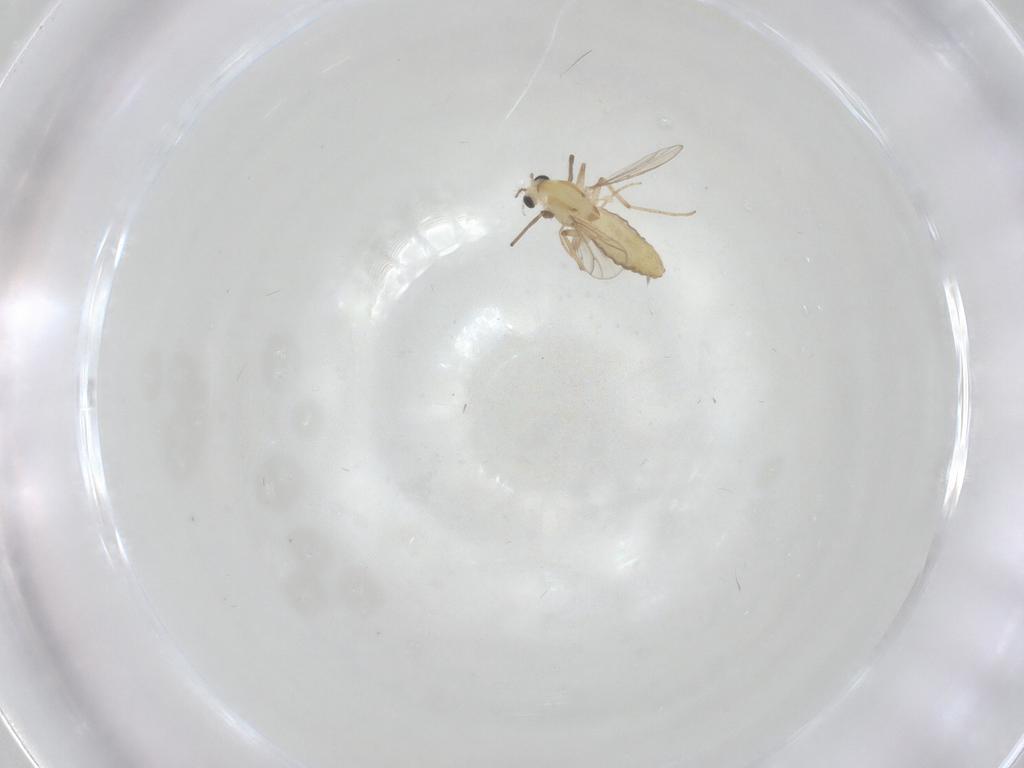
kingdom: Animalia
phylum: Arthropoda
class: Insecta
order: Diptera
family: Chironomidae
